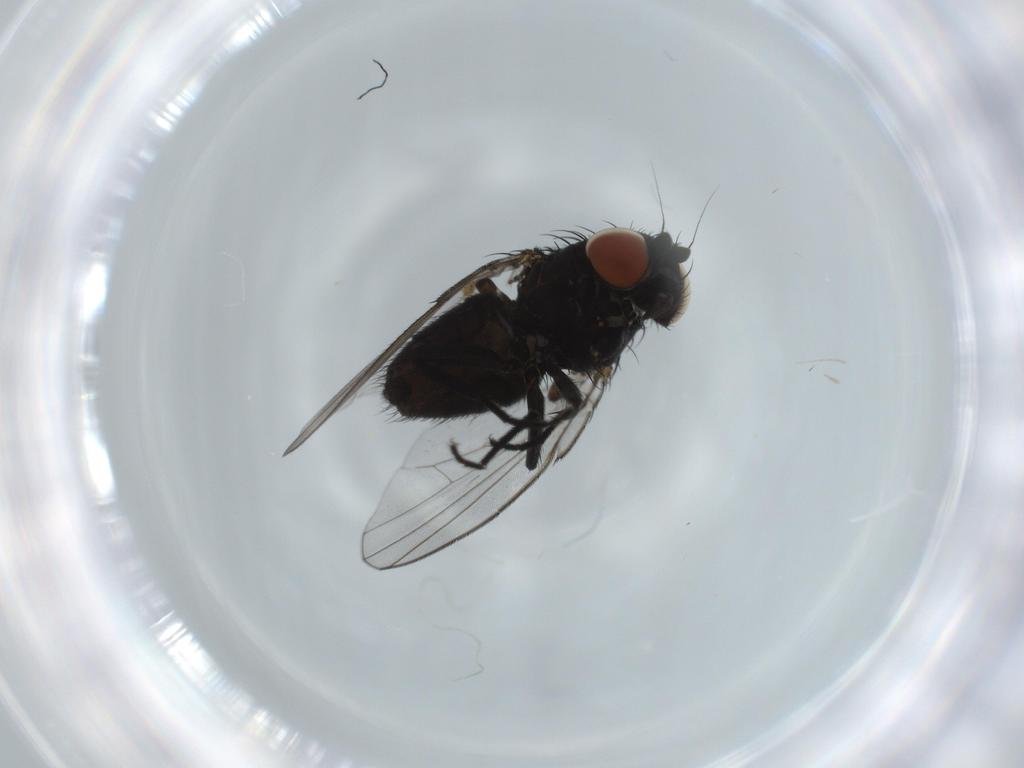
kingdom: Animalia
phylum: Arthropoda
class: Insecta
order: Diptera
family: Milichiidae
